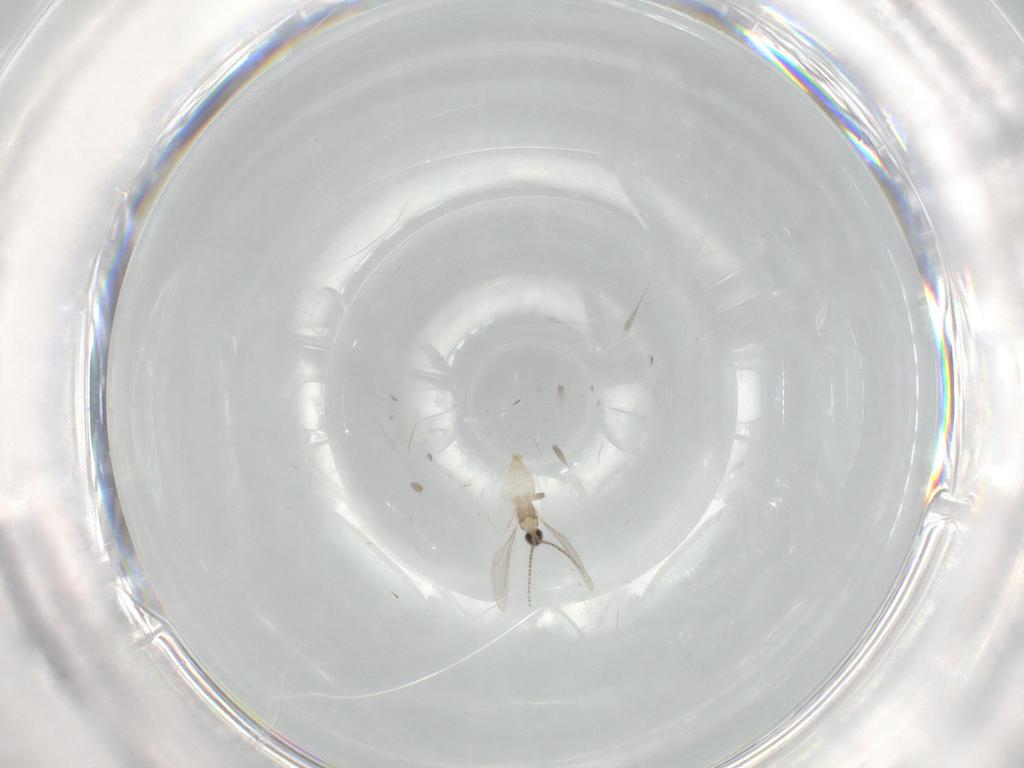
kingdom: Animalia
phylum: Arthropoda
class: Insecta
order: Diptera
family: Cecidomyiidae
